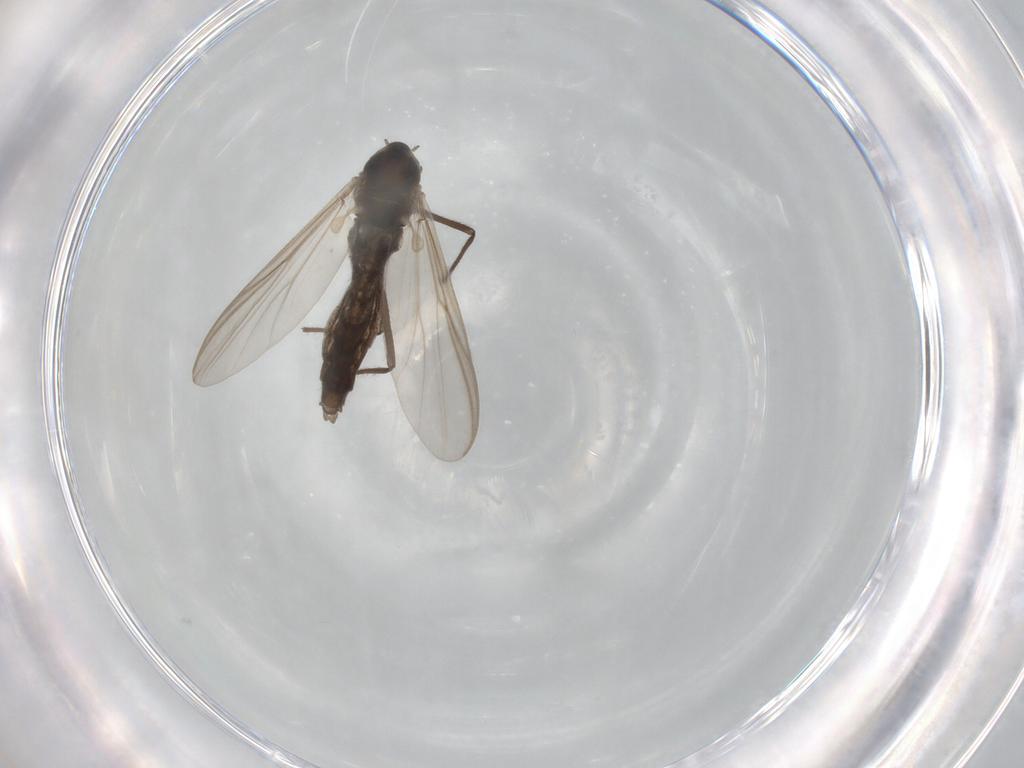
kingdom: Animalia
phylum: Arthropoda
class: Insecta
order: Diptera
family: Chironomidae
